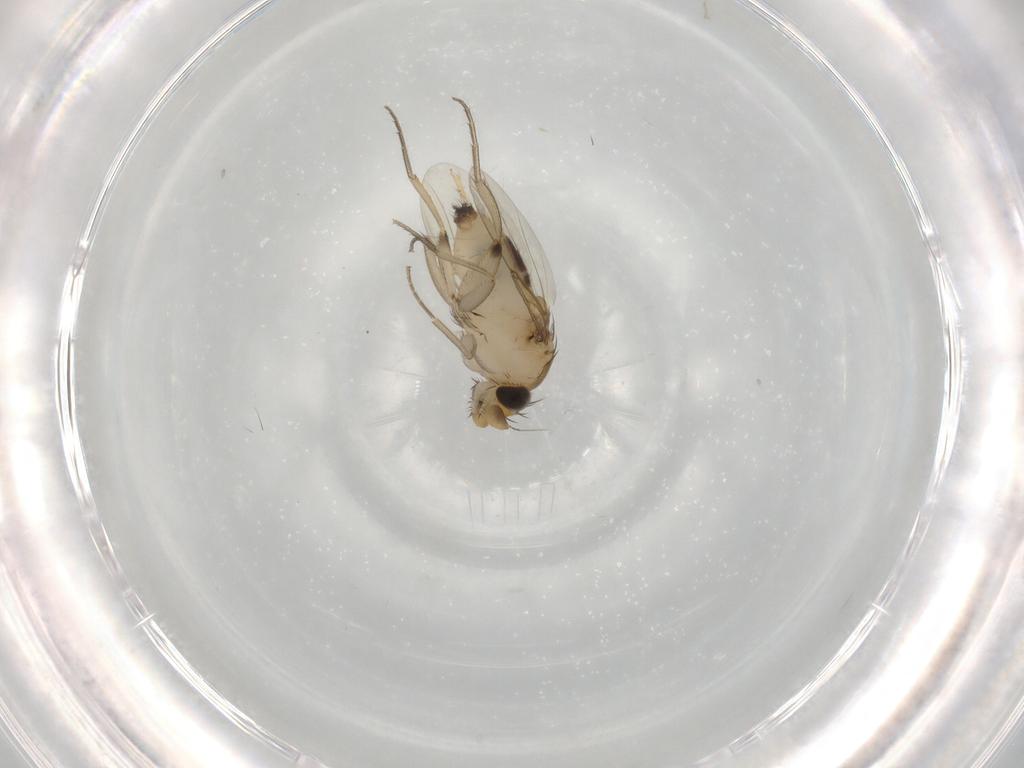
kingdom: Animalia
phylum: Arthropoda
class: Insecta
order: Diptera
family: Phoridae
